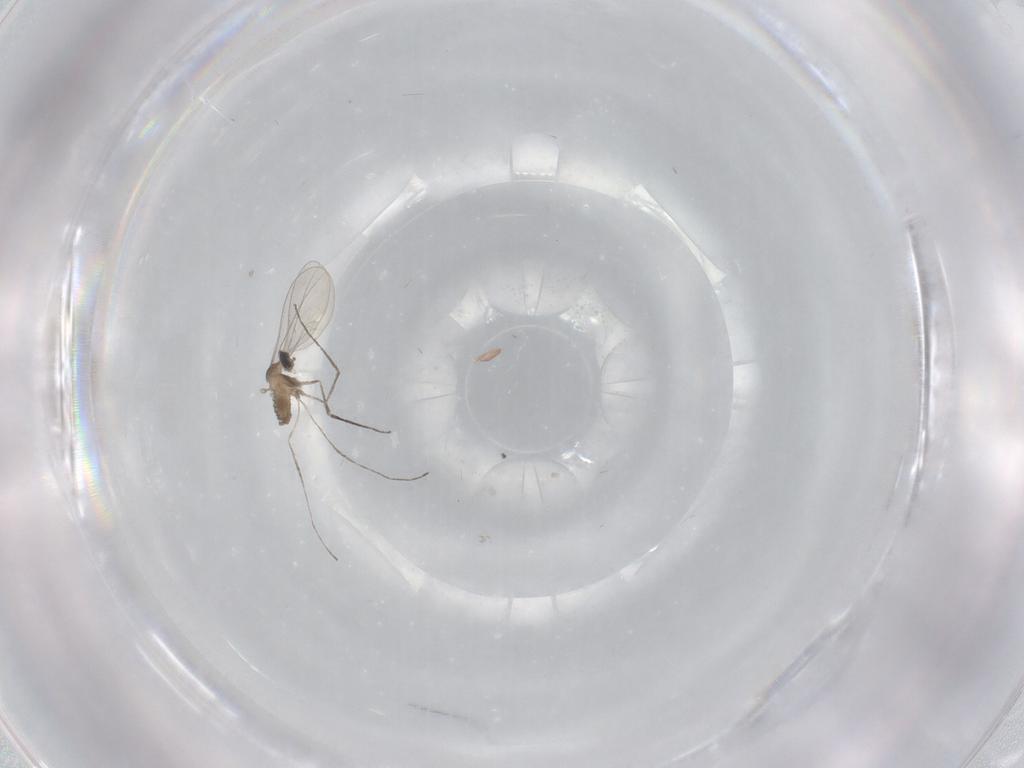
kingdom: Animalia
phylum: Arthropoda
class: Insecta
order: Diptera
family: Cecidomyiidae
